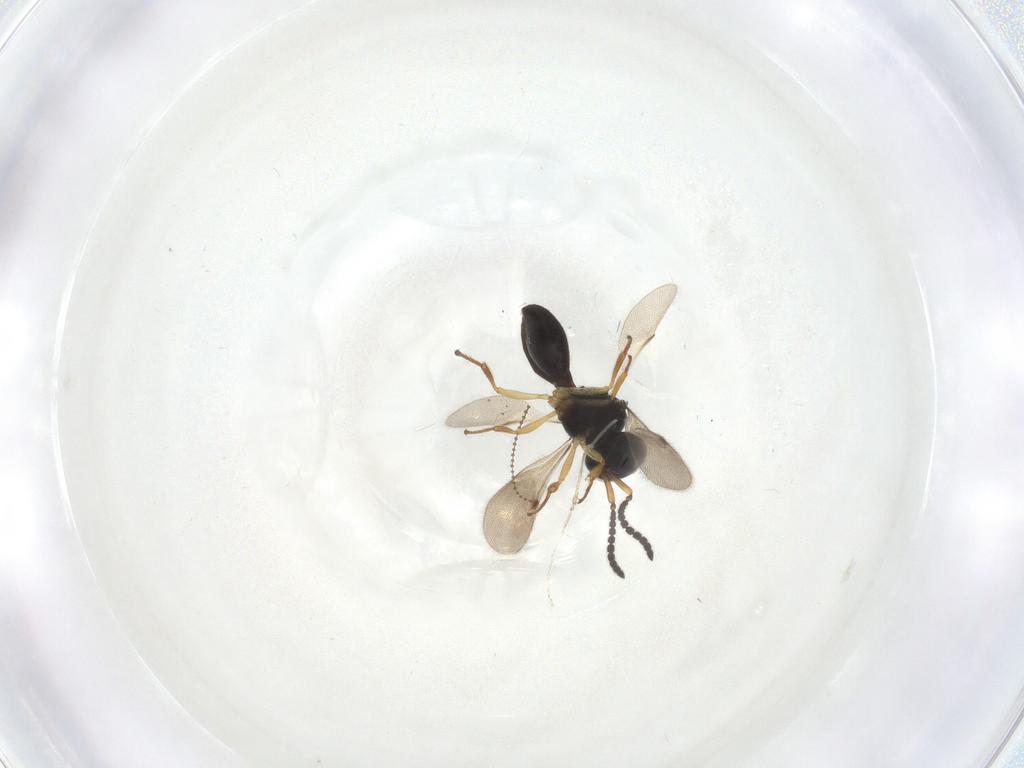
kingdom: Animalia
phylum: Arthropoda
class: Insecta
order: Hymenoptera
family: Scelionidae
